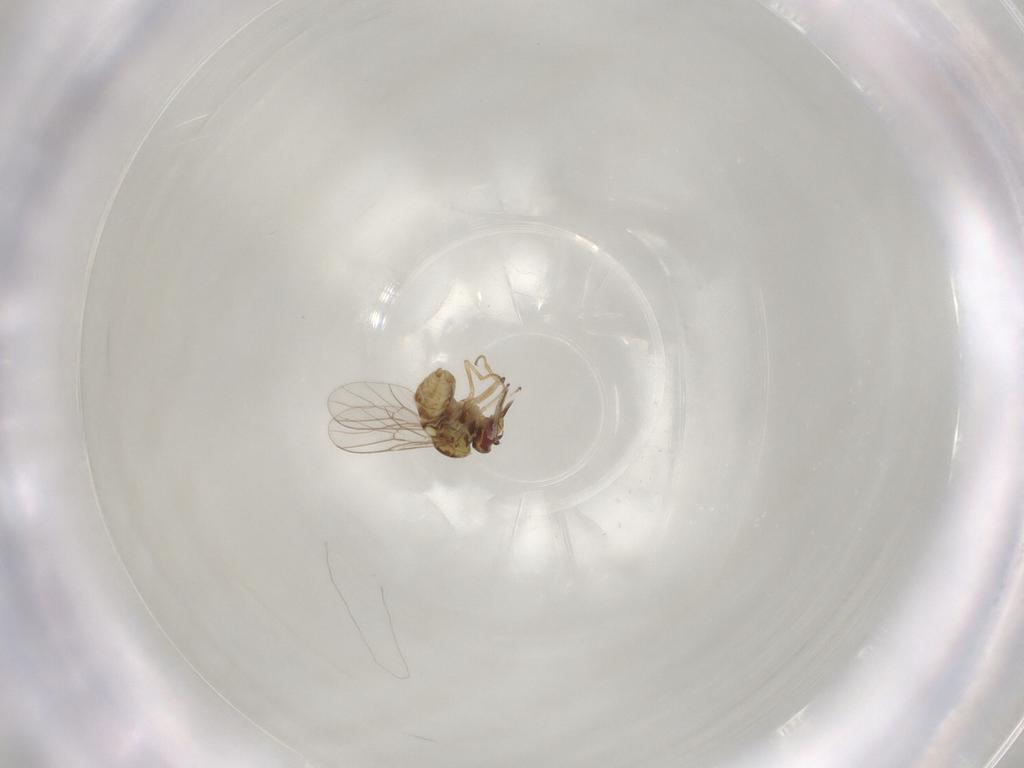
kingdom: Animalia
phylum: Arthropoda
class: Insecta
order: Diptera
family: Mythicomyiidae
